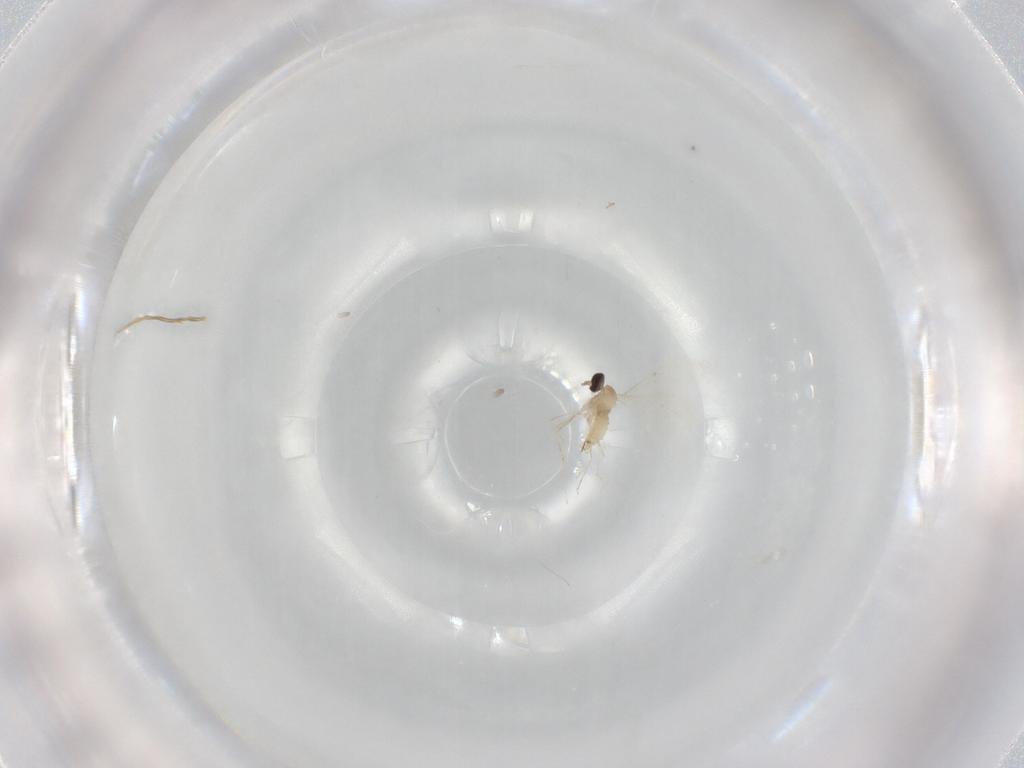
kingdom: Animalia
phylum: Arthropoda
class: Insecta
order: Diptera
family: Phoridae
